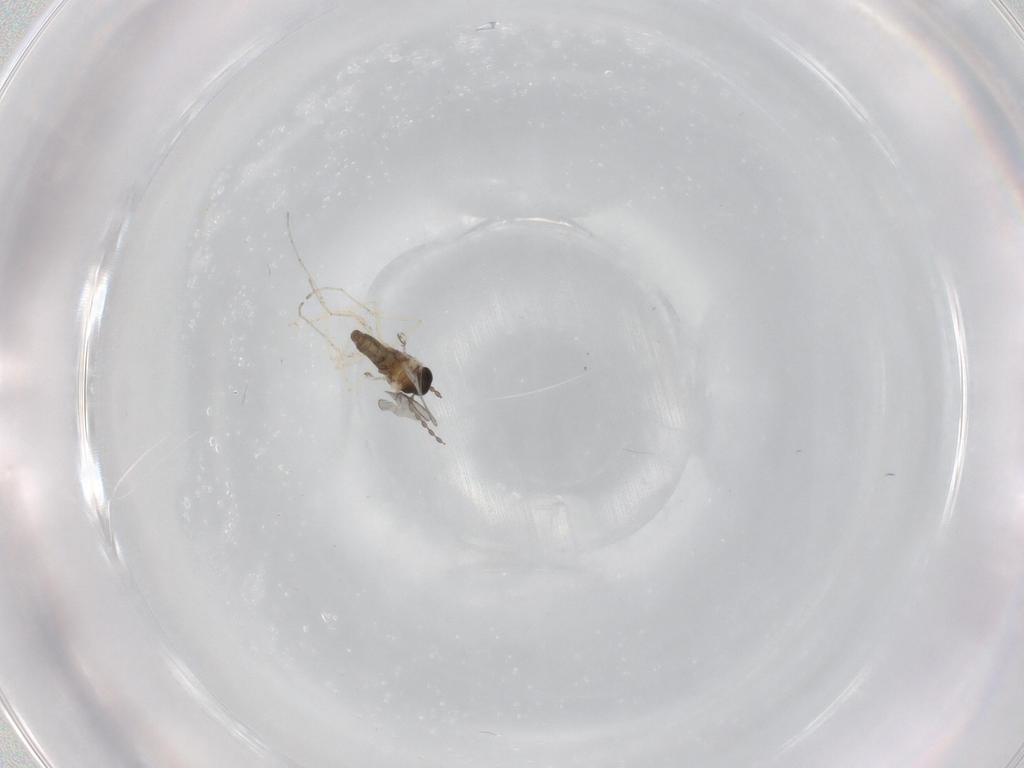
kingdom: Animalia
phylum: Arthropoda
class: Insecta
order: Diptera
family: Cecidomyiidae
